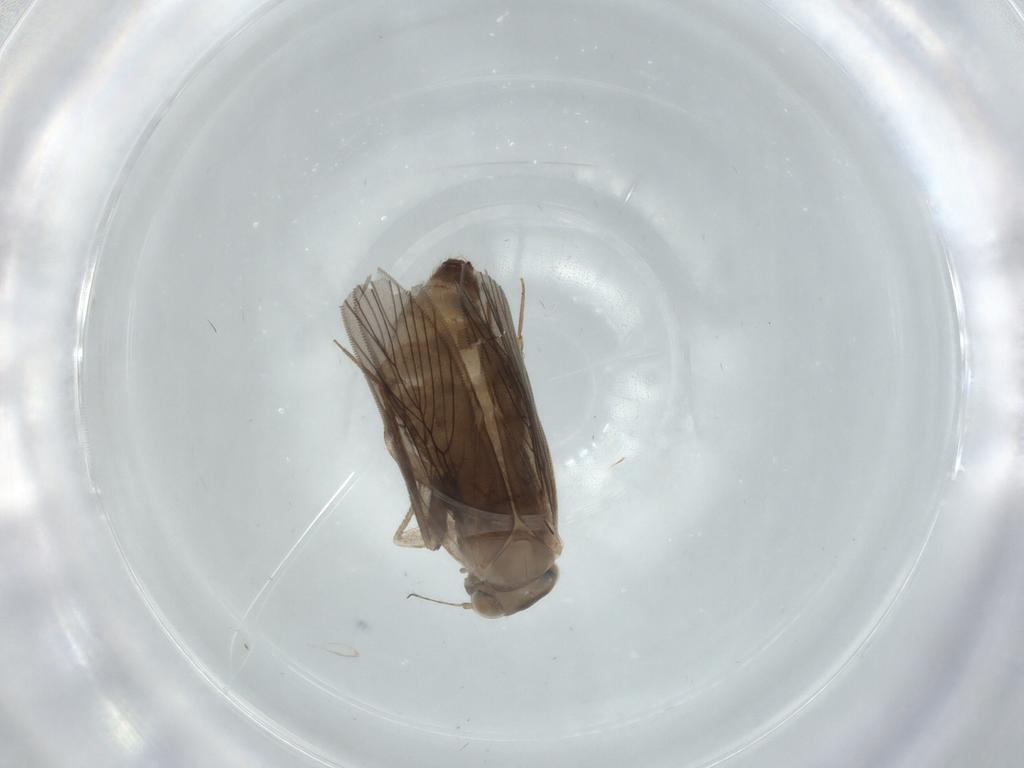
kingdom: Animalia
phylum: Arthropoda
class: Insecta
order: Psocodea
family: Lepidopsocidae
